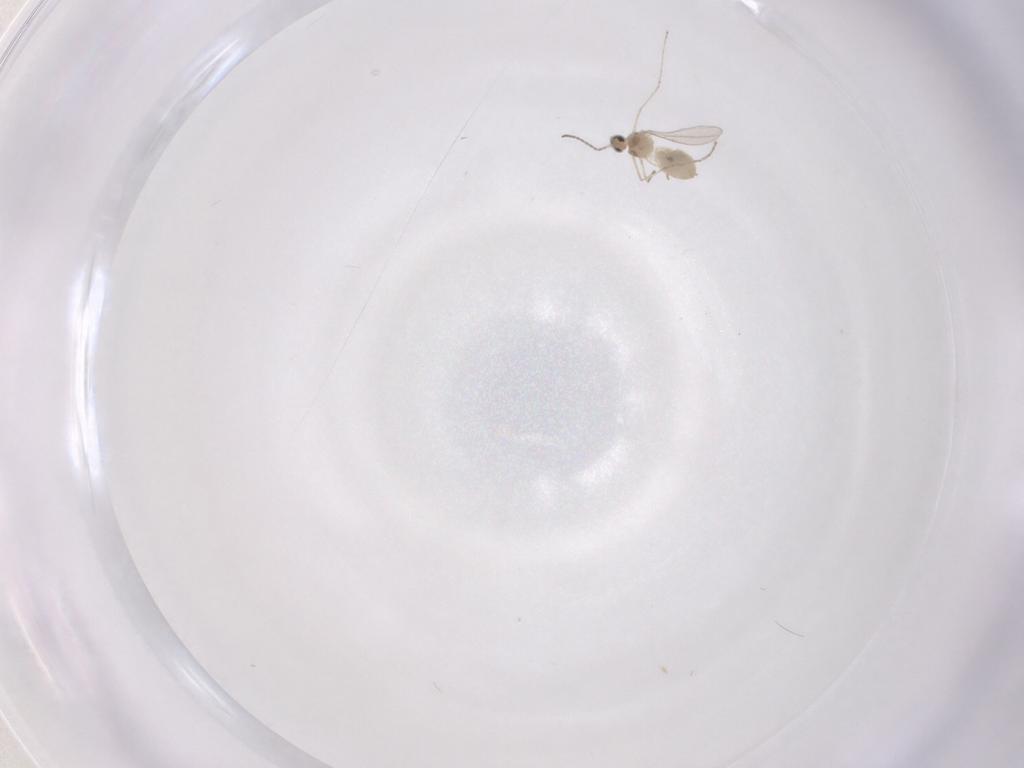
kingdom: Animalia
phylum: Arthropoda
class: Insecta
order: Diptera
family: Cecidomyiidae
